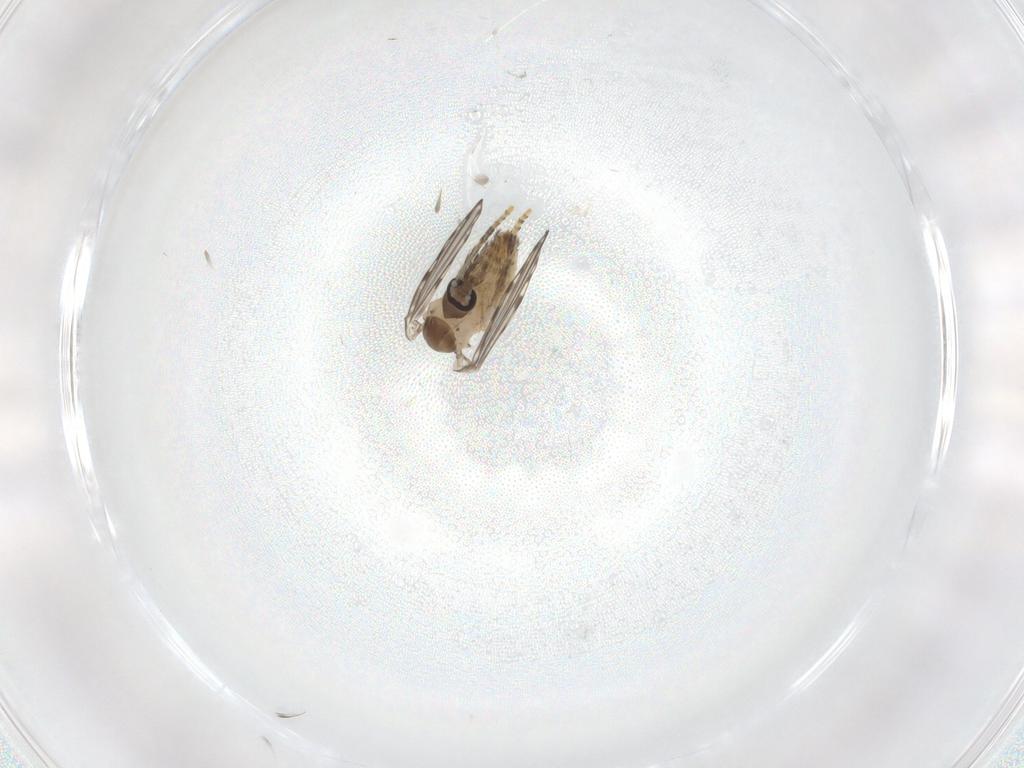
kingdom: Animalia
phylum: Arthropoda
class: Insecta
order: Diptera
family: Psychodidae
